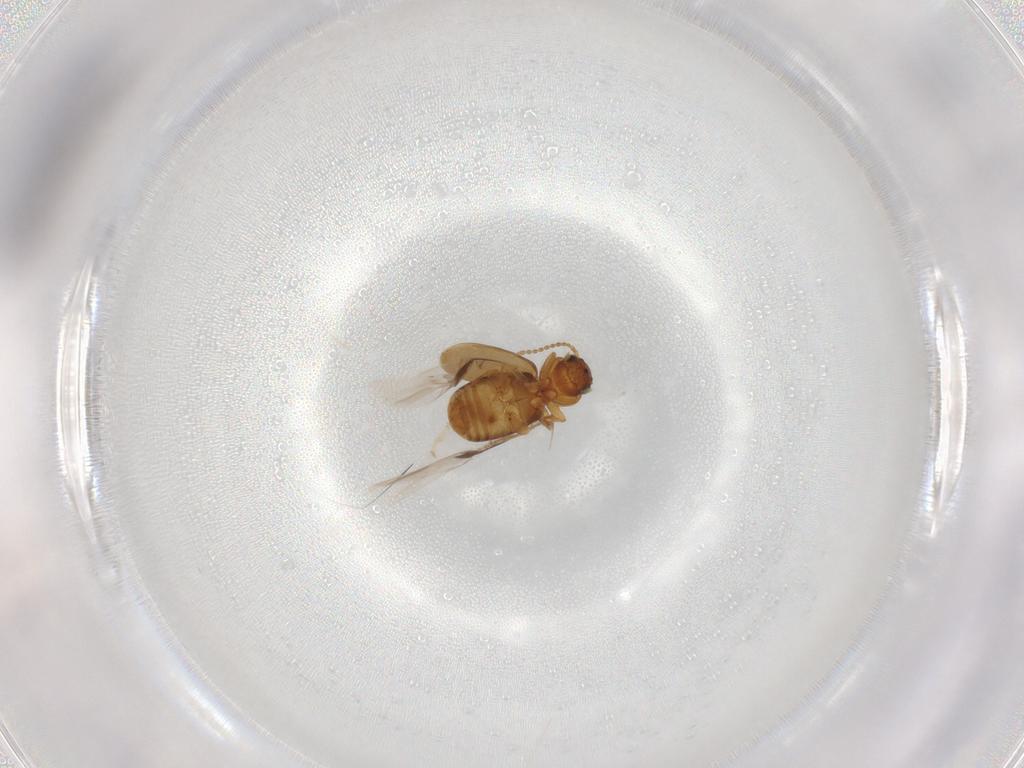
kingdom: Animalia
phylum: Arthropoda
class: Insecta
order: Coleoptera
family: Carabidae
